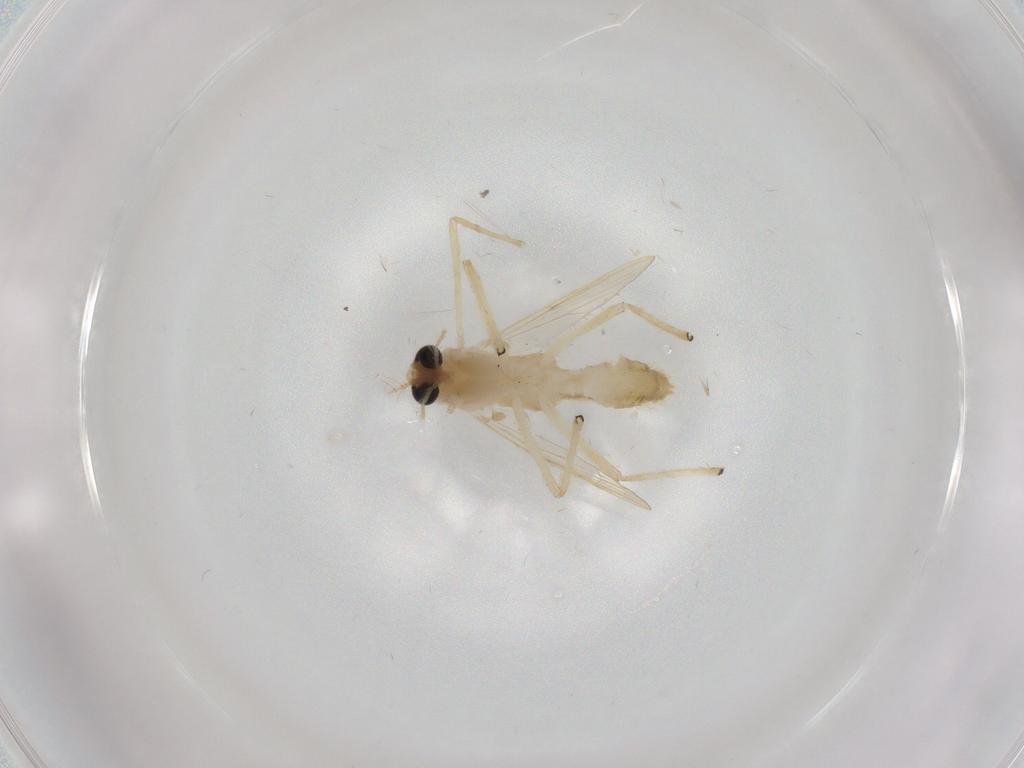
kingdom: Animalia
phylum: Arthropoda
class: Insecta
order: Diptera
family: Chironomidae
